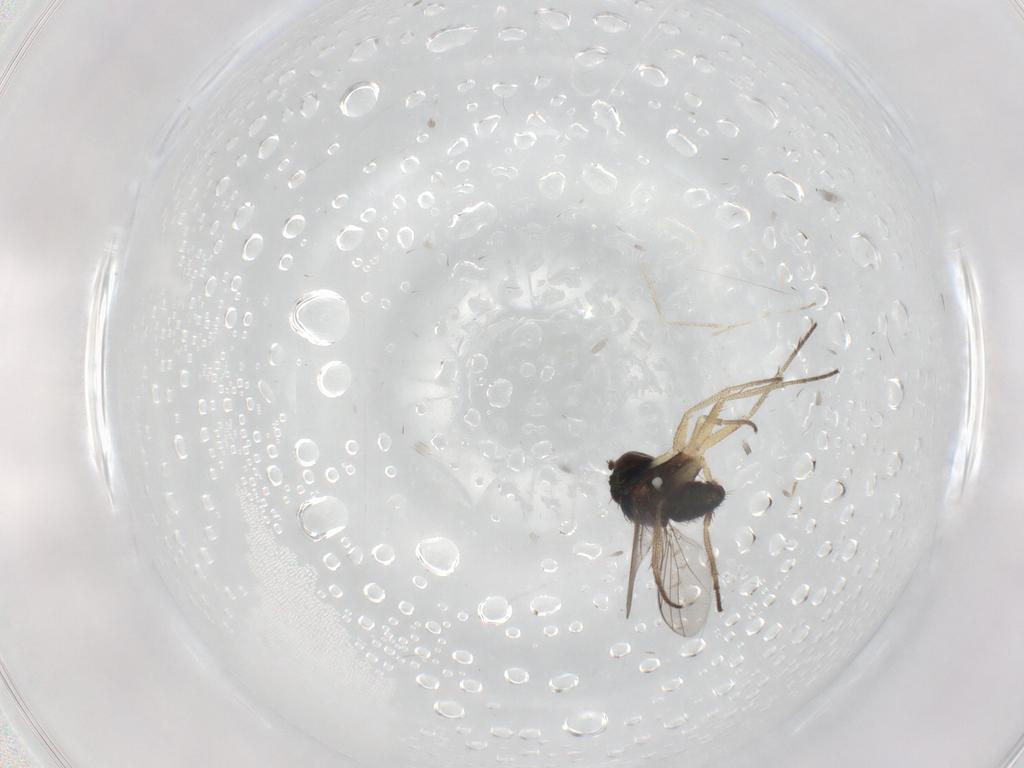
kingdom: Animalia
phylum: Arthropoda
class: Insecta
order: Diptera
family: Dolichopodidae
